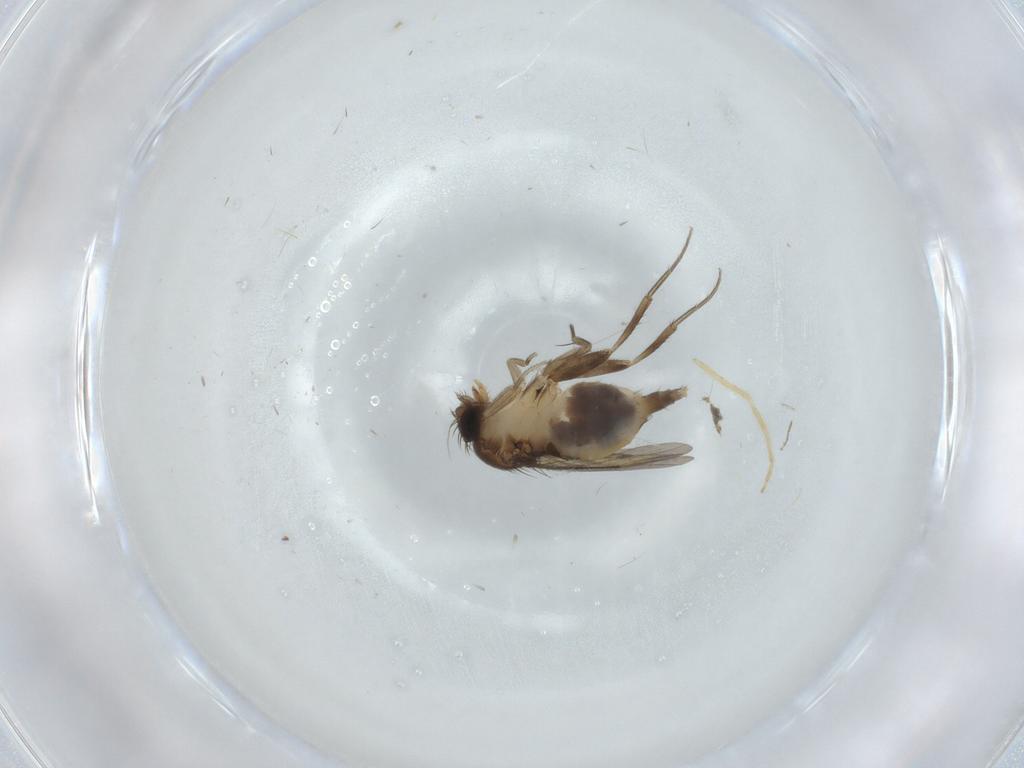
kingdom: Animalia
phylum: Arthropoda
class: Insecta
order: Diptera
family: Phoridae
